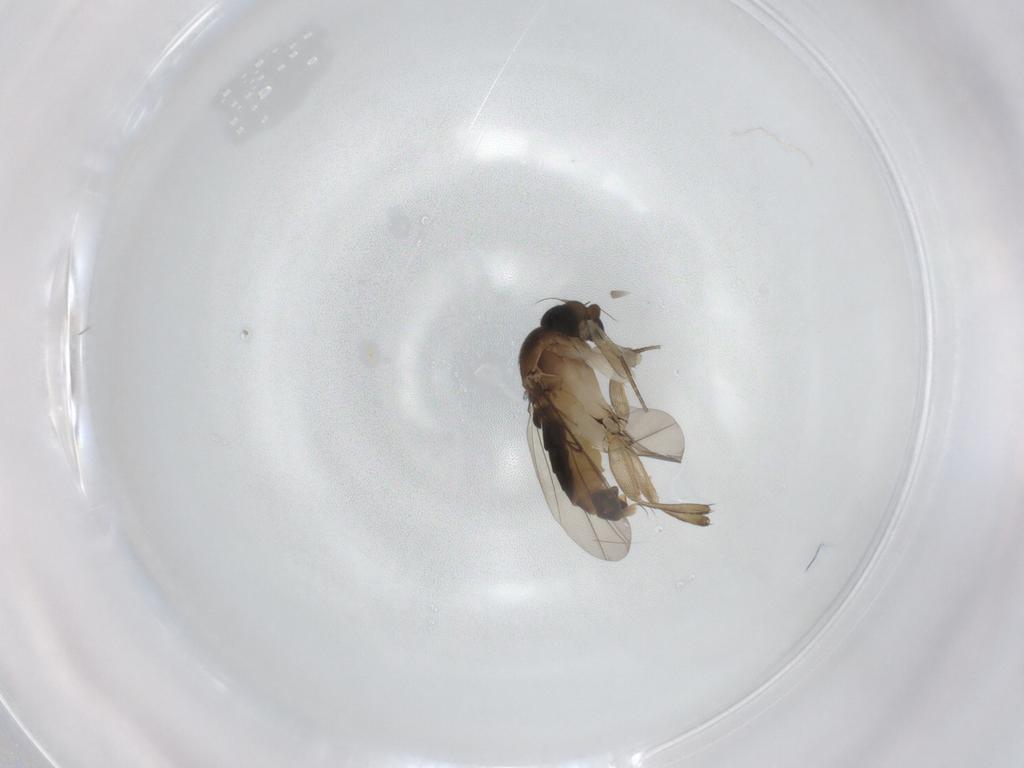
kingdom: Animalia
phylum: Arthropoda
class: Insecta
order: Diptera
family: Phoridae
